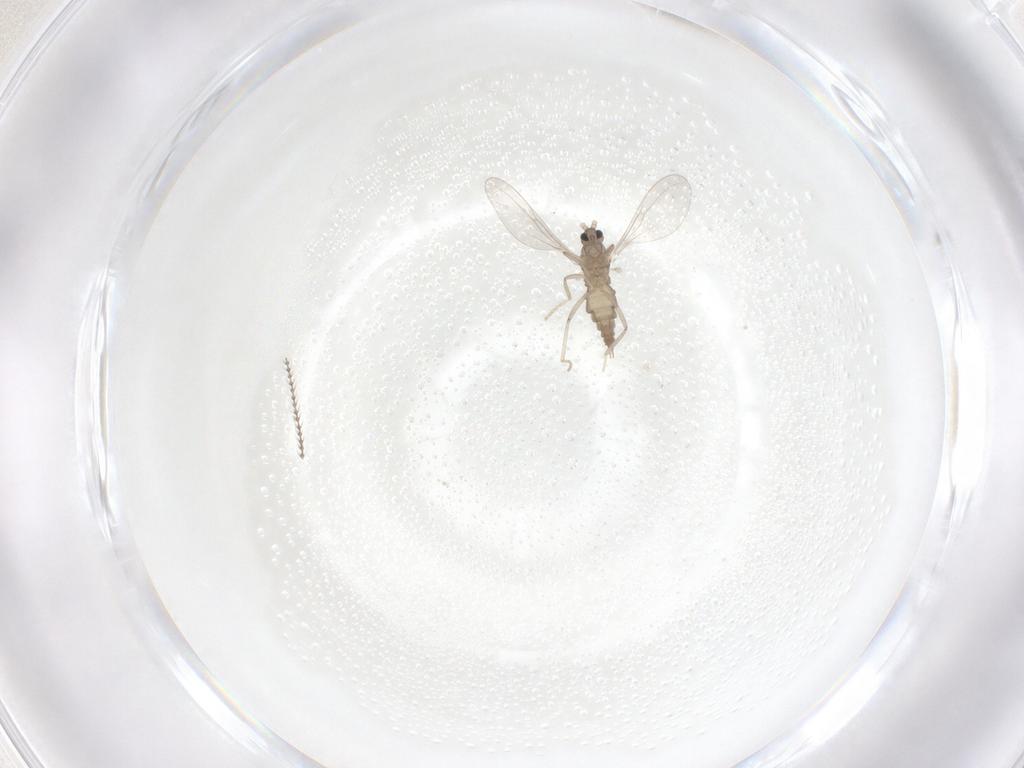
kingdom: Animalia
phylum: Arthropoda
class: Insecta
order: Diptera
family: Cecidomyiidae
